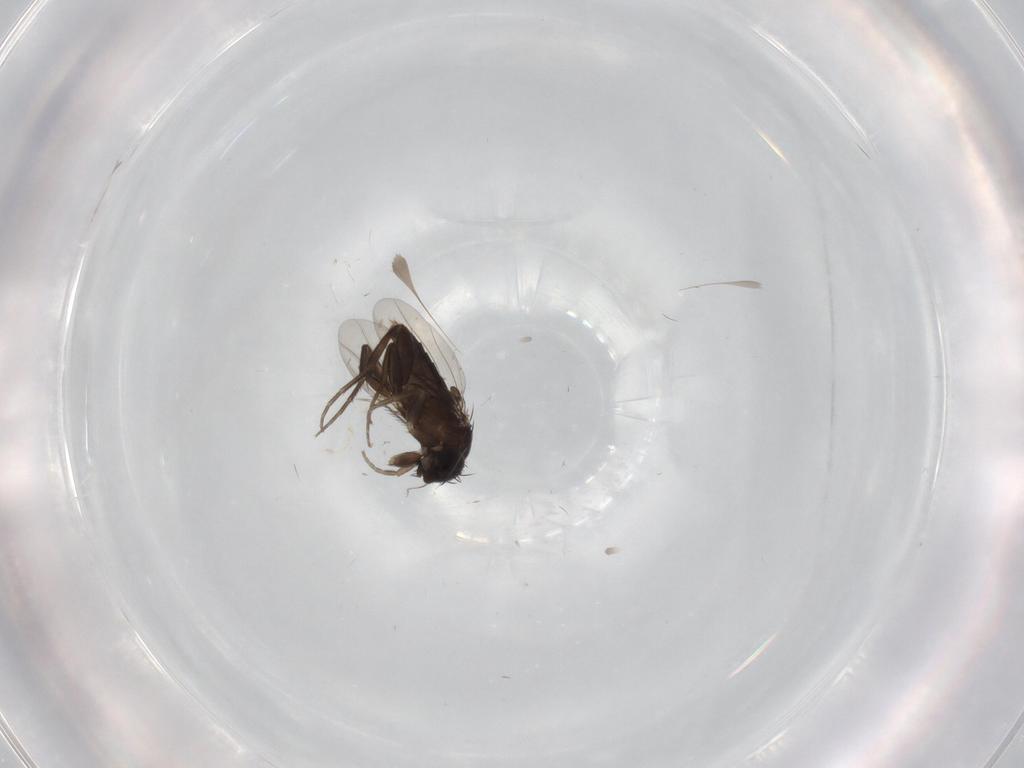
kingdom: Animalia
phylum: Arthropoda
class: Insecta
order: Diptera
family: Phoridae
